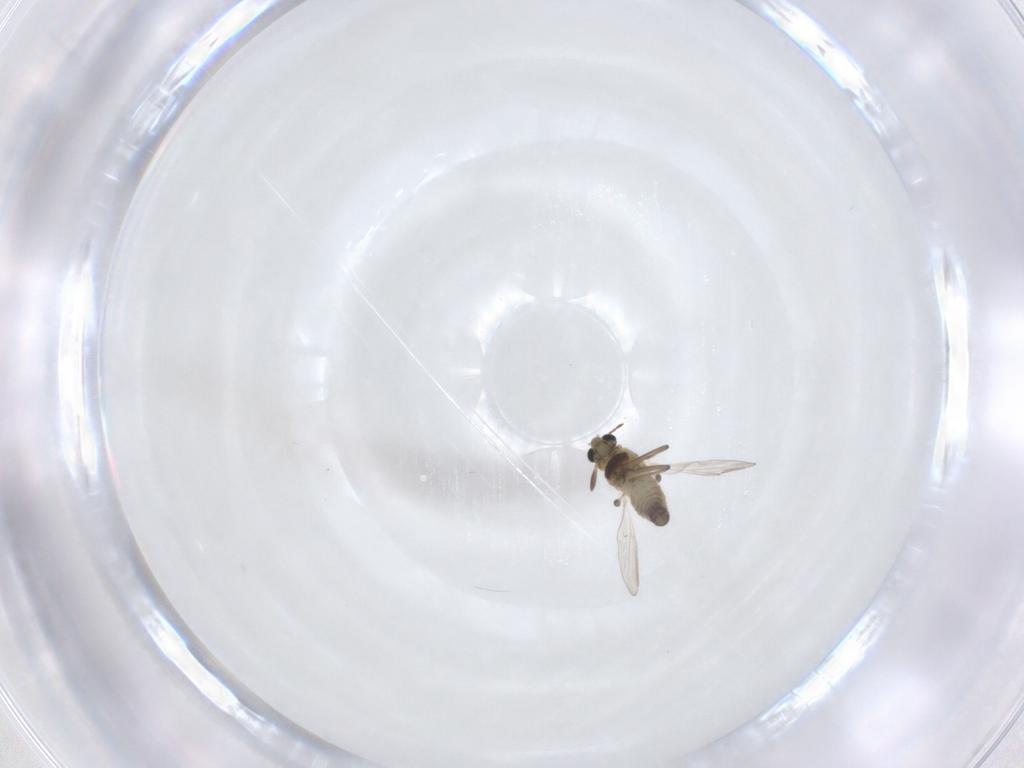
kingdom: Animalia
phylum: Arthropoda
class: Insecta
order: Diptera
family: Chironomidae
